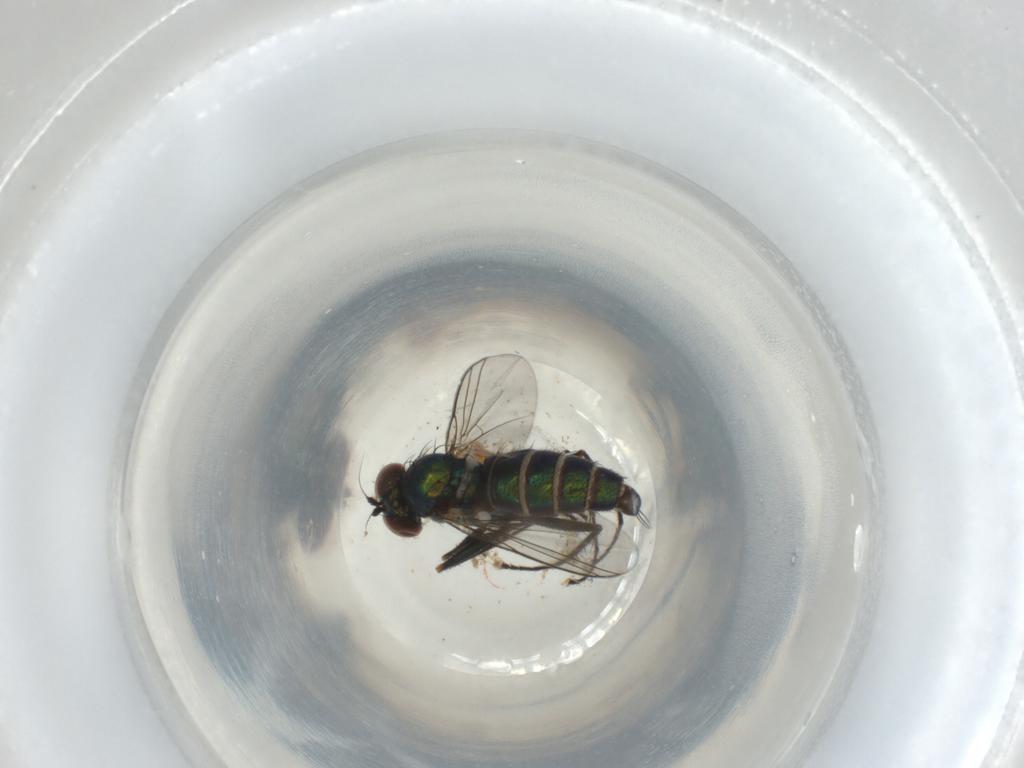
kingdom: Animalia
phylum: Arthropoda
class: Insecta
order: Diptera
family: Dolichopodidae
